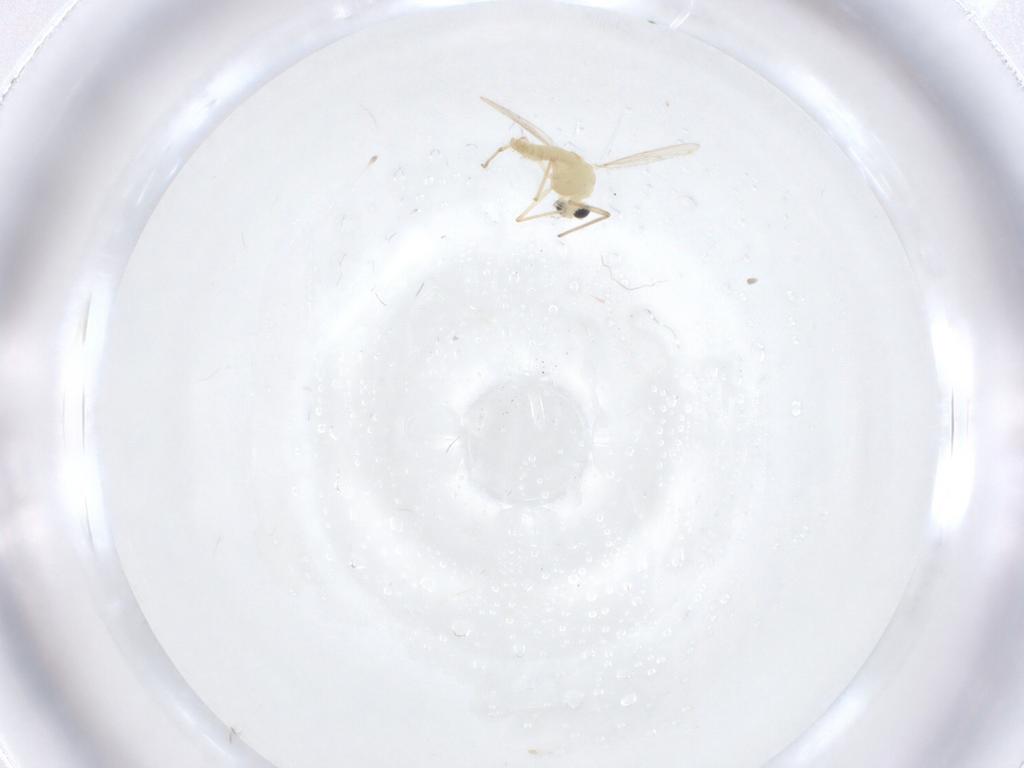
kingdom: Animalia
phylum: Arthropoda
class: Insecta
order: Diptera
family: Chironomidae
